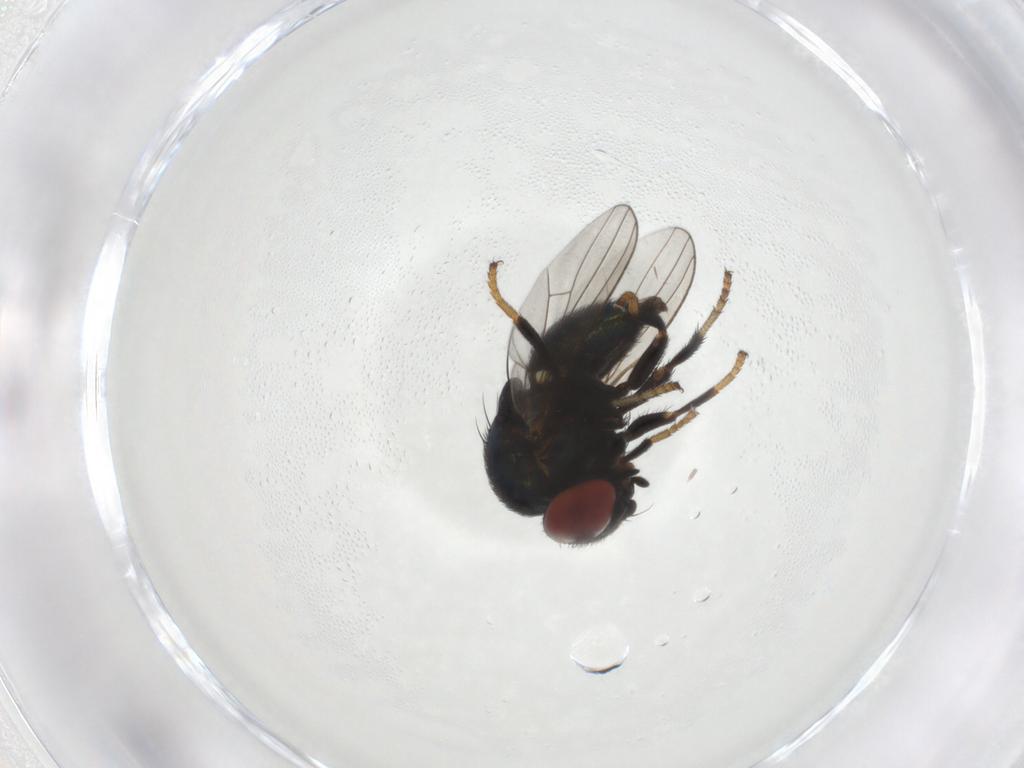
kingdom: Animalia
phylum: Arthropoda
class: Insecta
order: Diptera
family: Chamaemyiidae
